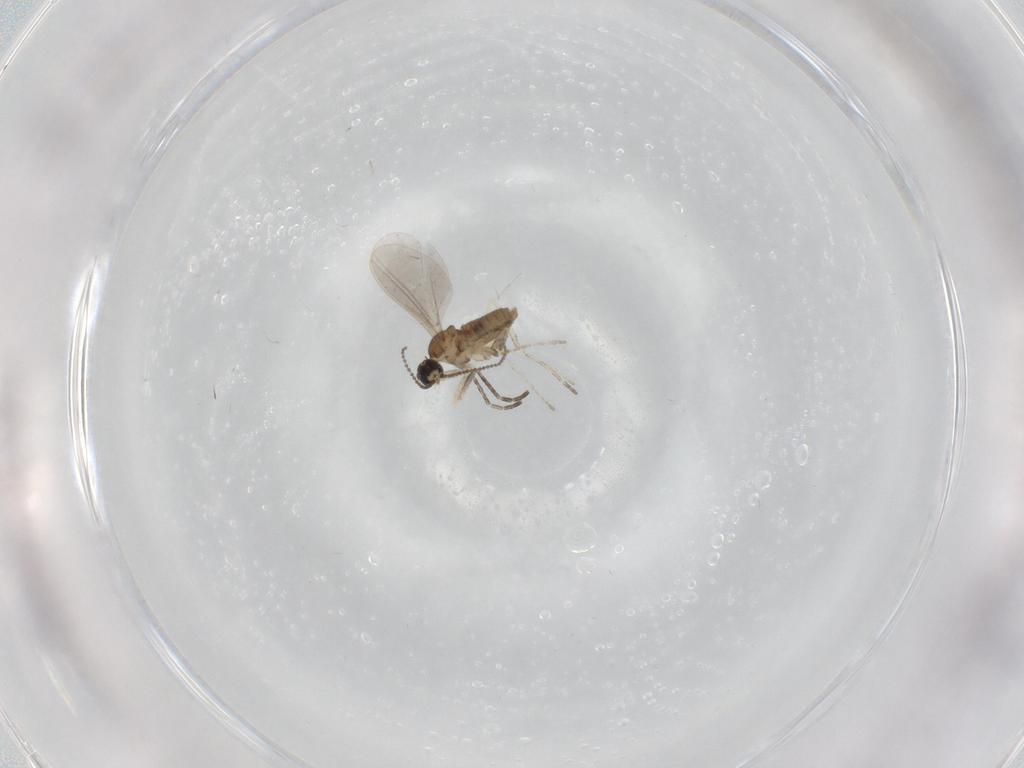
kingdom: Animalia
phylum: Arthropoda
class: Insecta
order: Diptera
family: Cecidomyiidae
